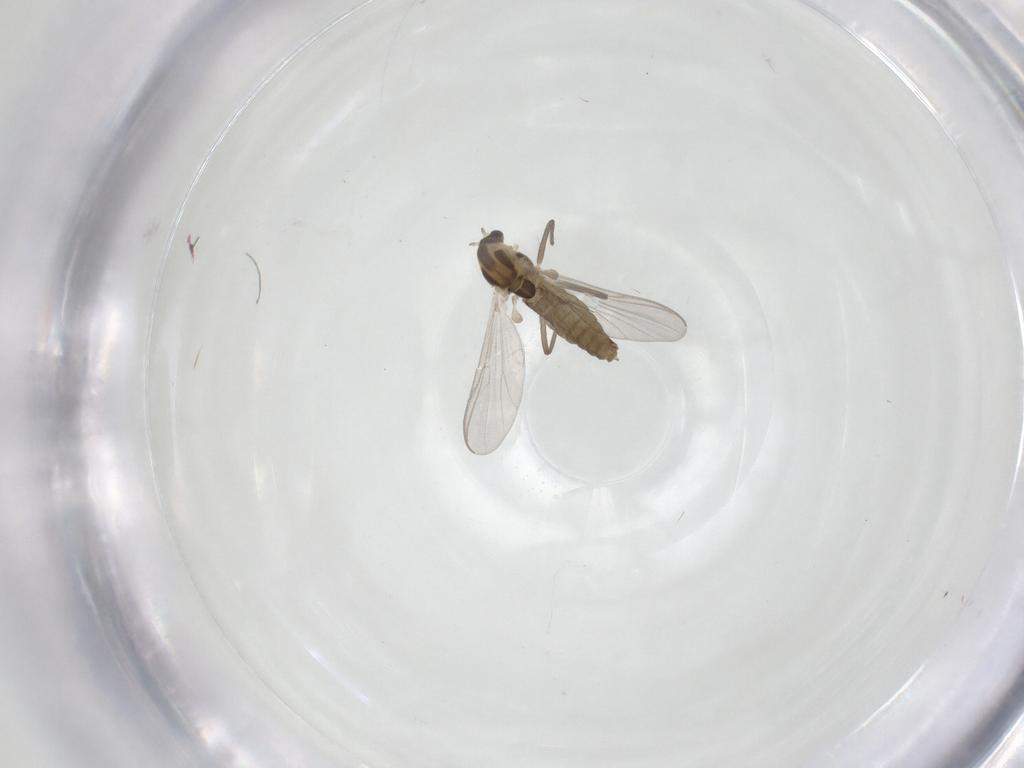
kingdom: Animalia
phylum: Arthropoda
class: Insecta
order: Diptera
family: Chironomidae
